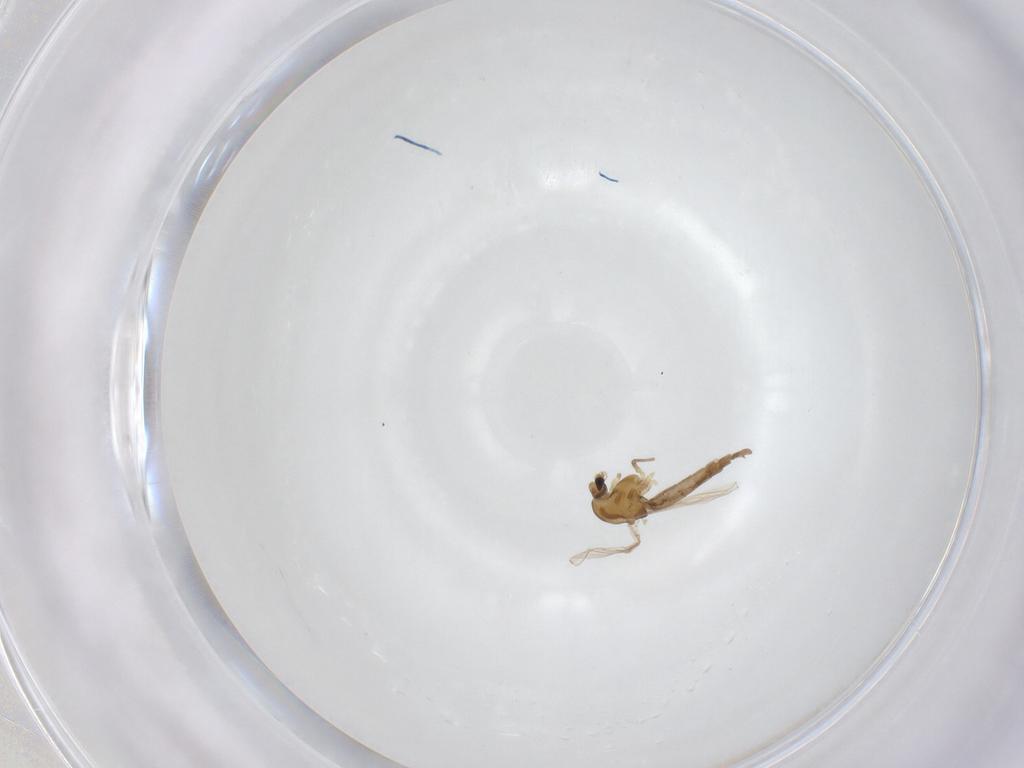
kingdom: Animalia
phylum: Arthropoda
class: Insecta
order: Diptera
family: Chironomidae
